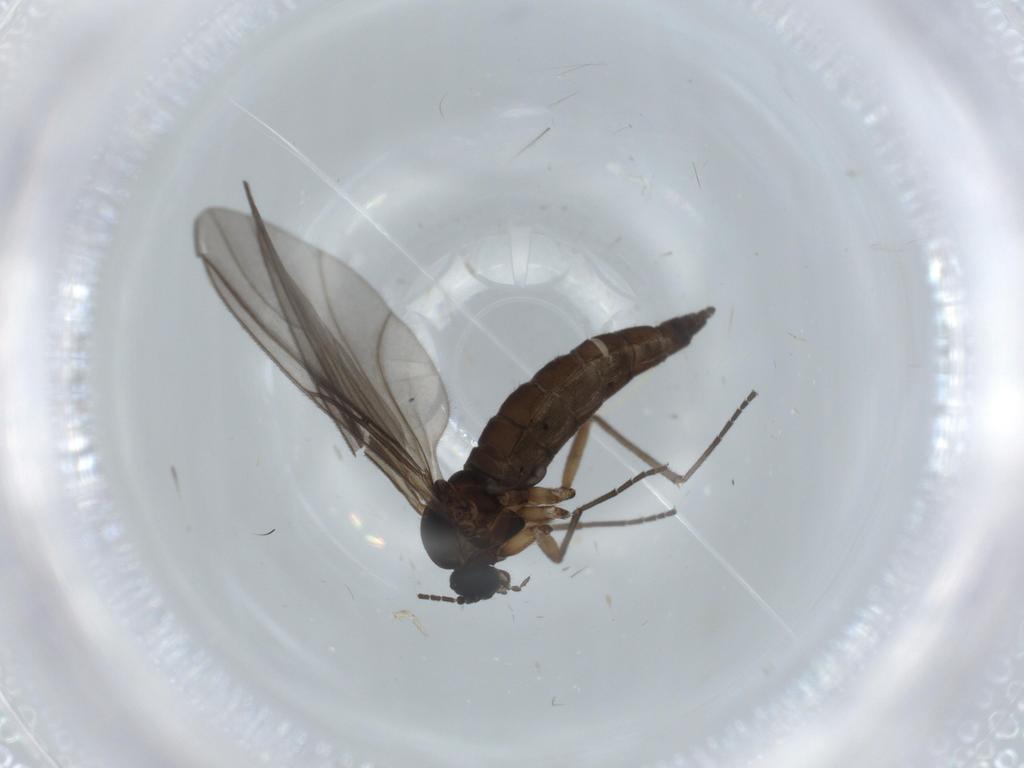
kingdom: Animalia
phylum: Arthropoda
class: Insecta
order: Diptera
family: Sciaridae
